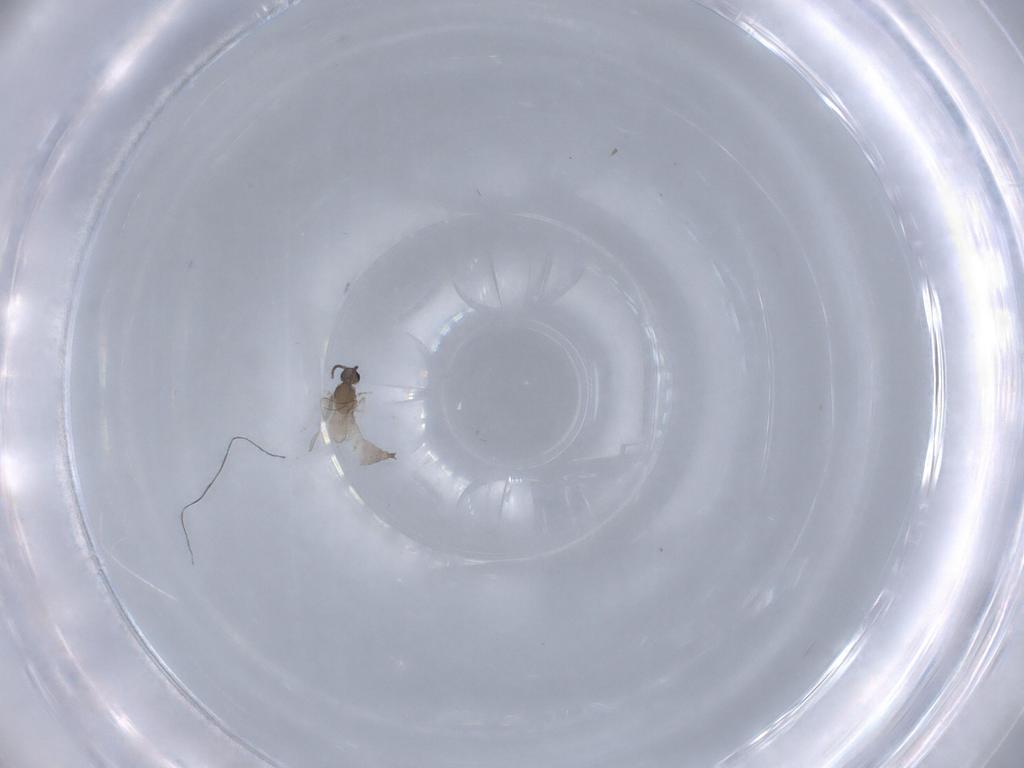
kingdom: Animalia
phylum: Arthropoda
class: Insecta
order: Diptera
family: Cecidomyiidae
